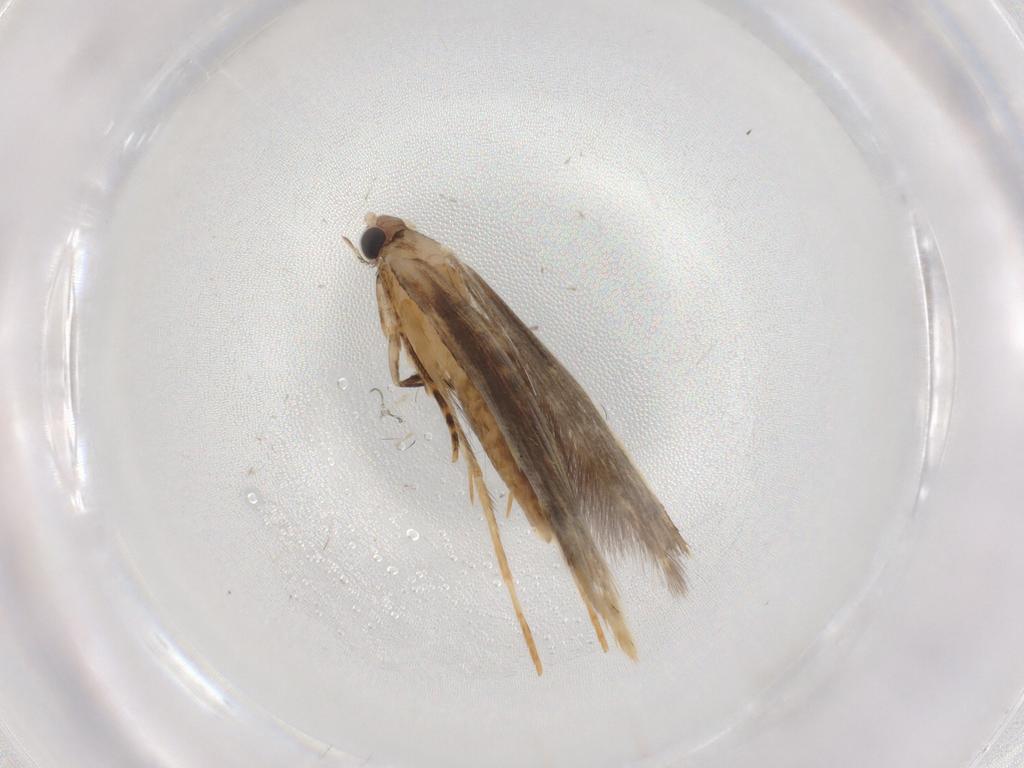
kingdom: Animalia
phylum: Arthropoda
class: Insecta
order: Lepidoptera
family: Tineidae
